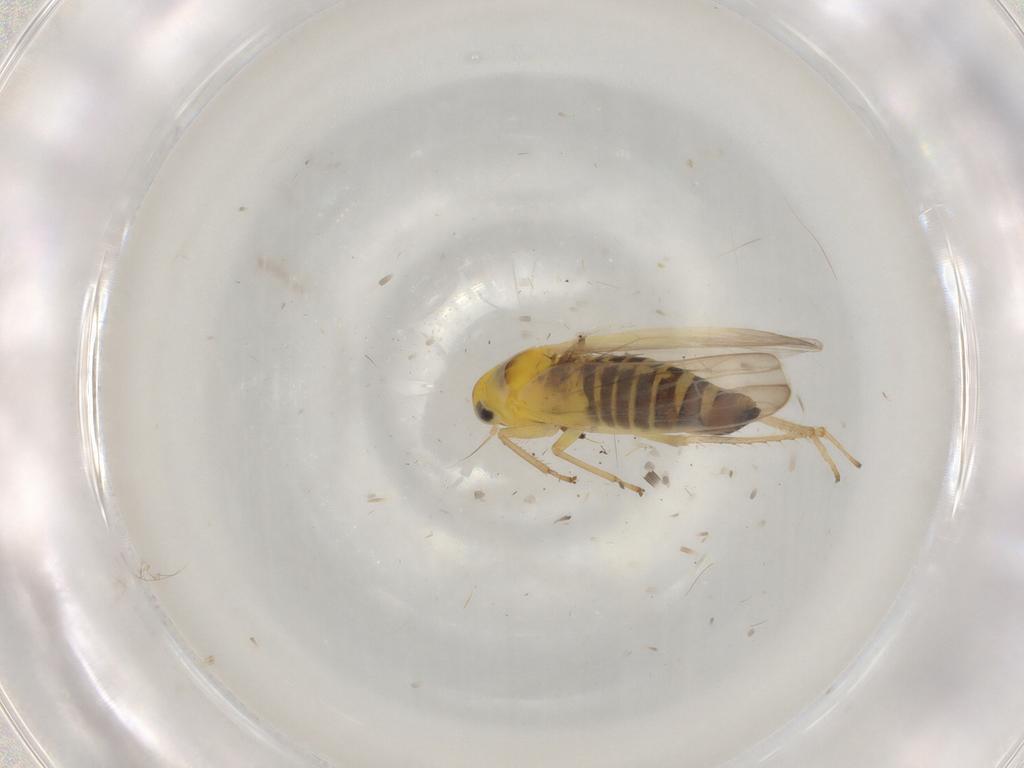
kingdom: Animalia
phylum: Arthropoda
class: Insecta
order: Hemiptera
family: Cicadellidae
